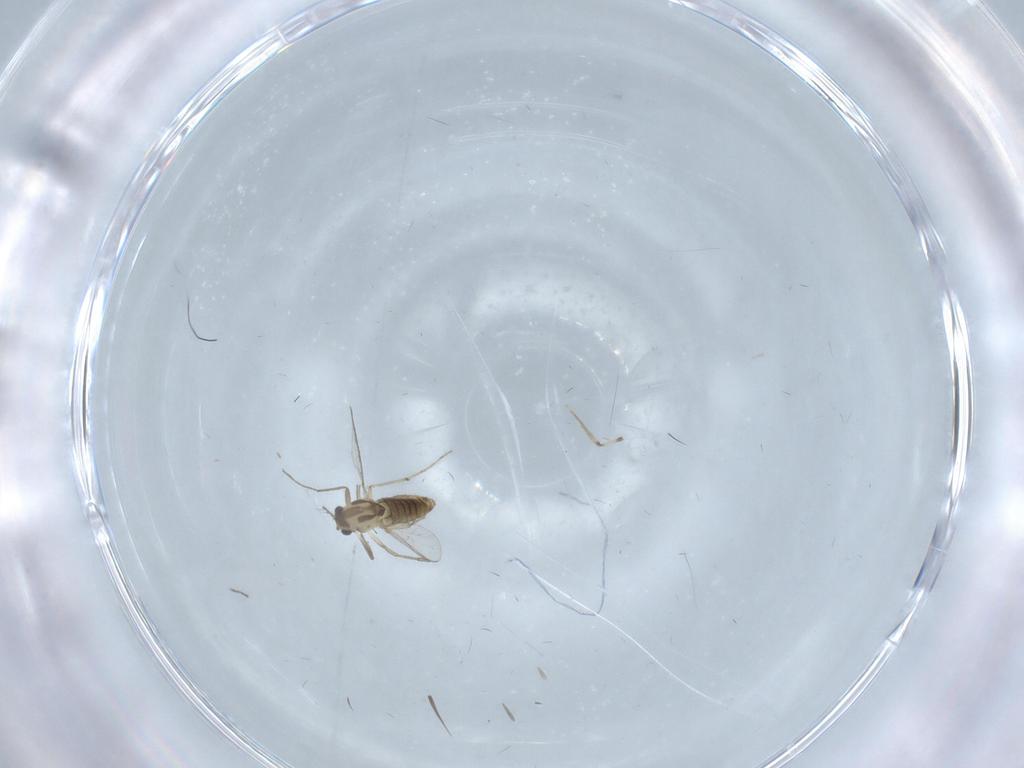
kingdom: Animalia
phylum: Arthropoda
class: Insecta
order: Diptera
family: Chironomidae
